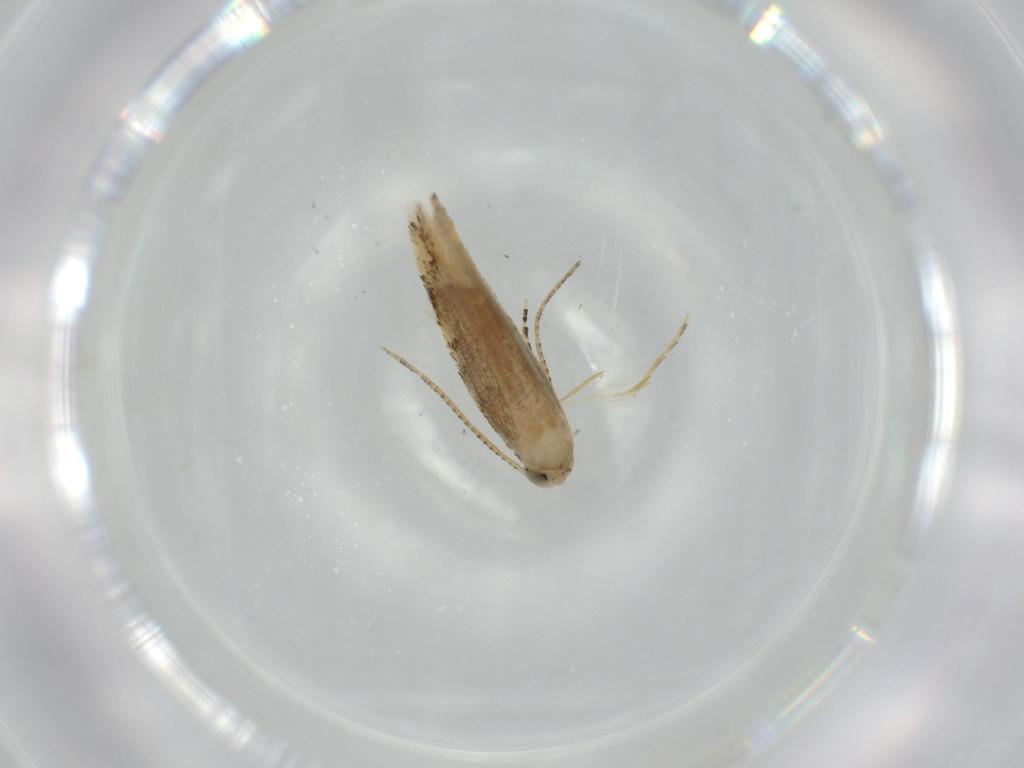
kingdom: Animalia
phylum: Arthropoda
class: Insecta
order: Lepidoptera
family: Bucculatricidae
